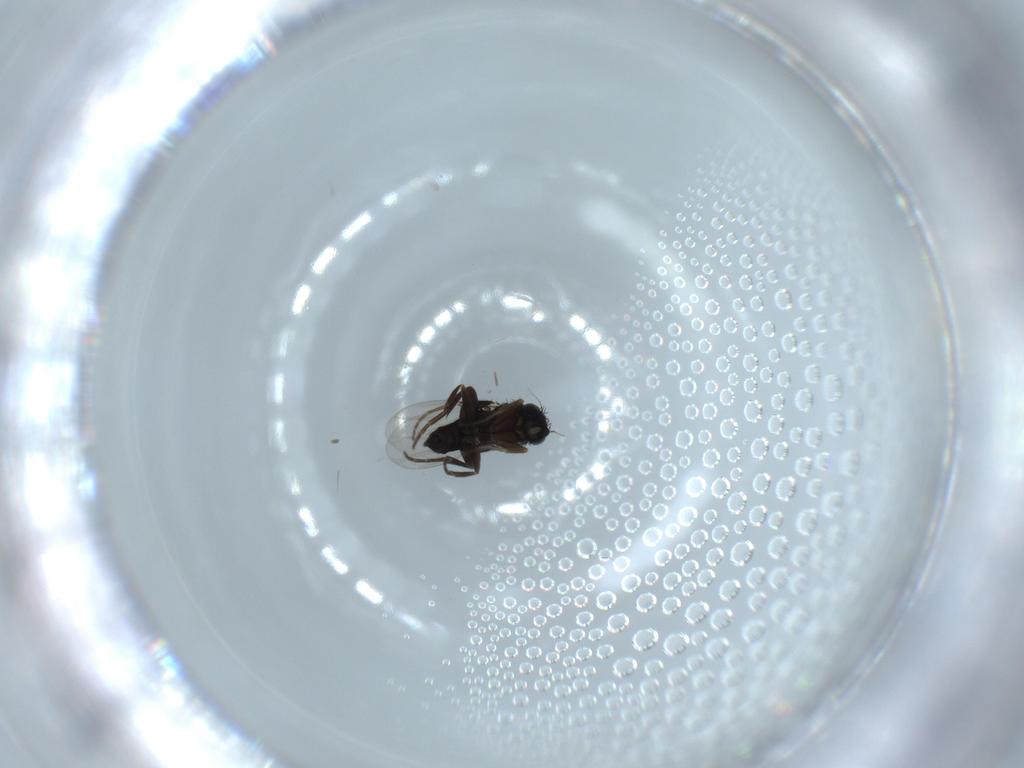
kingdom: Animalia
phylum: Arthropoda
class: Insecta
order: Diptera
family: Phoridae
